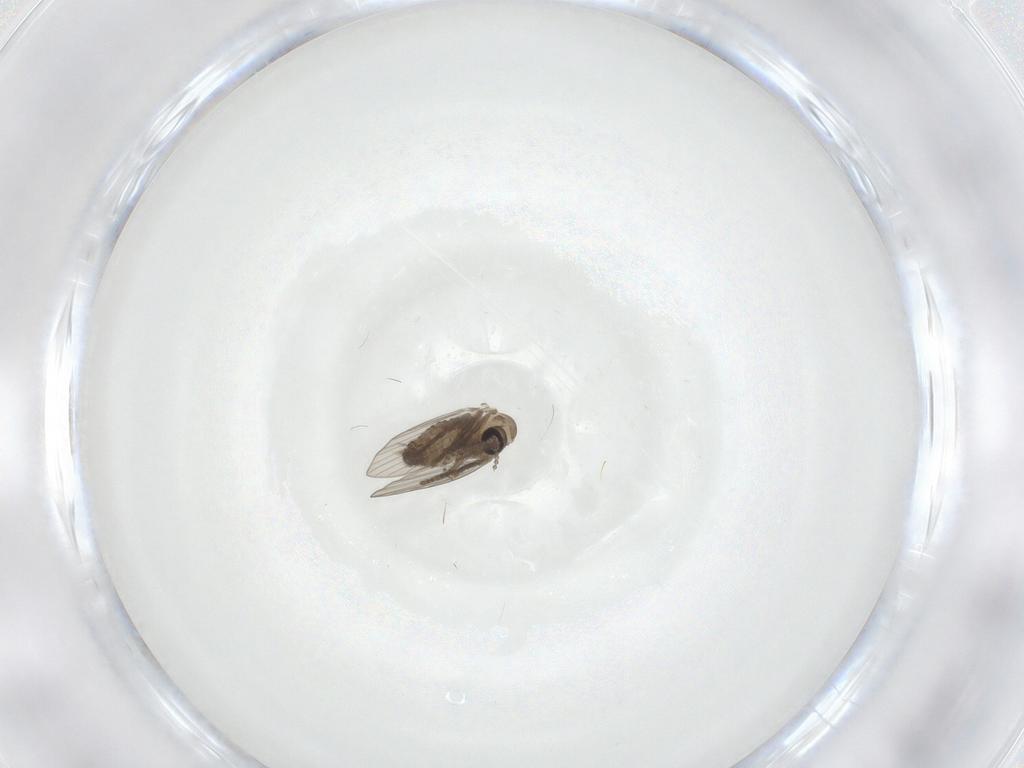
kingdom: Animalia
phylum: Arthropoda
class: Insecta
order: Diptera
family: Psychodidae
